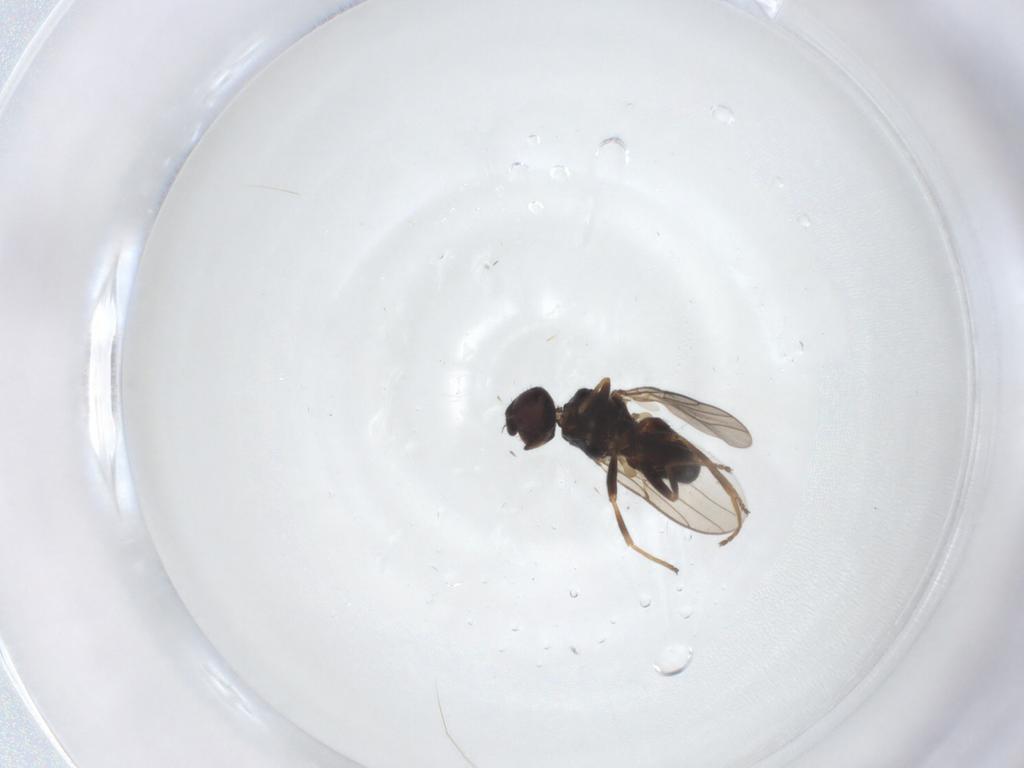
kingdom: Animalia
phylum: Arthropoda
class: Insecta
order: Diptera
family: Chloropidae
